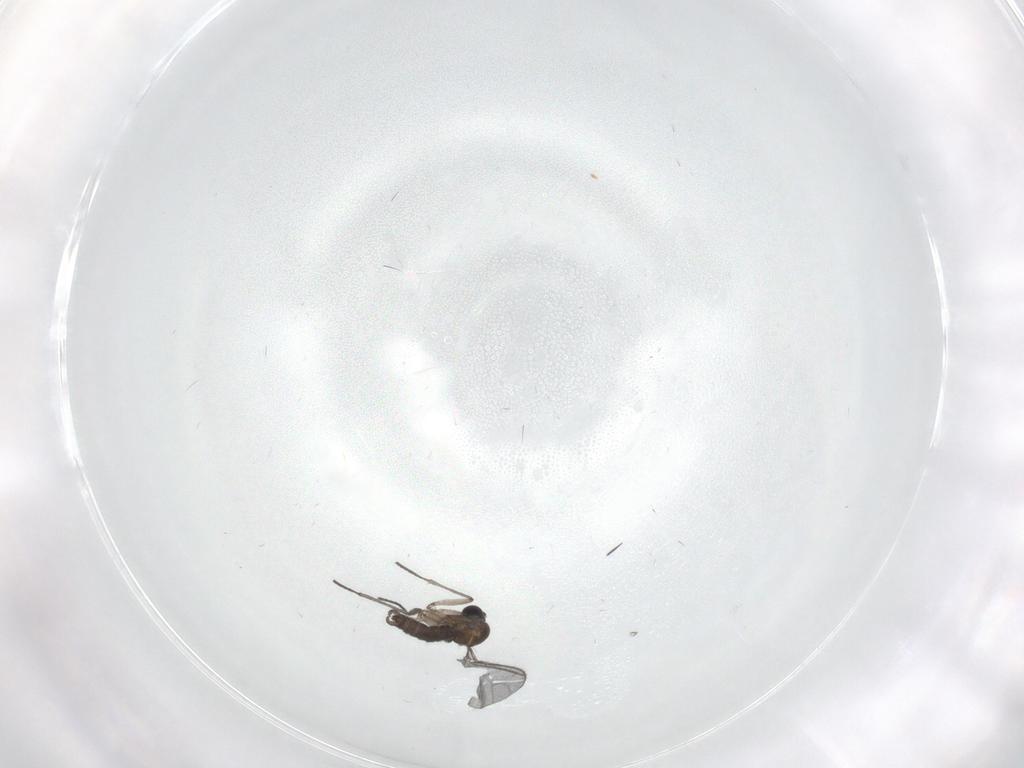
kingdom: Animalia
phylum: Arthropoda
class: Insecta
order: Diptera
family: Sciaridae
